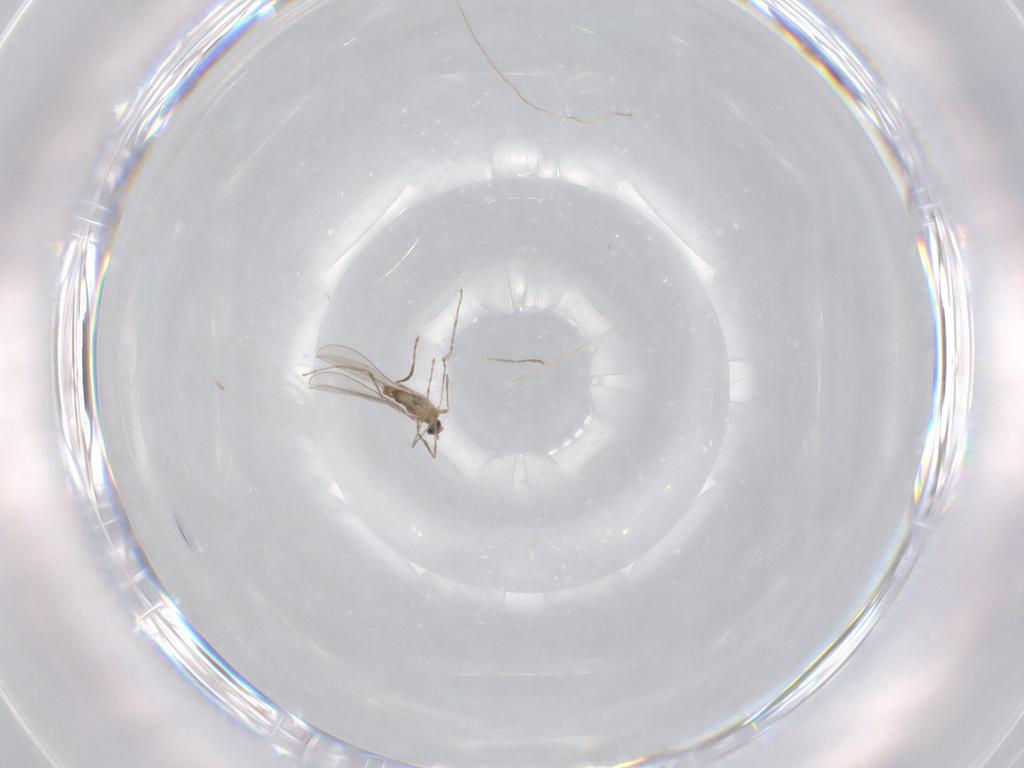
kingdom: Animalia
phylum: Arthropoda
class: Insecta
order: Diptera
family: Cecidomyiidae
